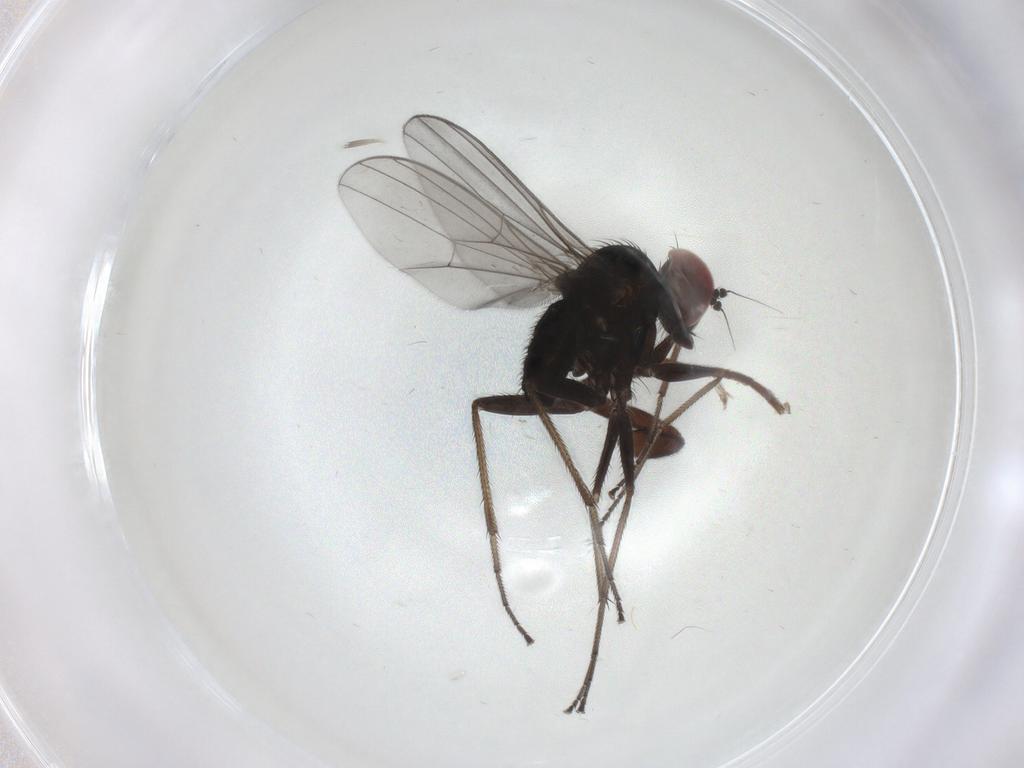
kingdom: Animalia
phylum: Arthropoda
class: Insecta
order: Diptera
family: Dolichopodidae
